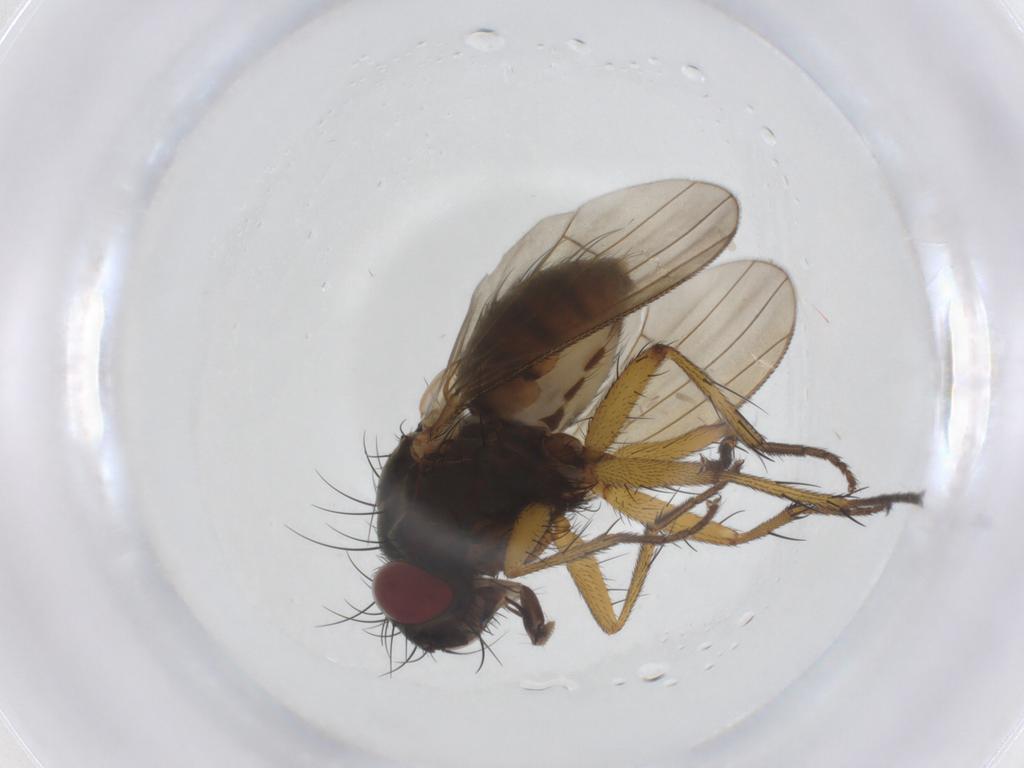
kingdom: Animalia
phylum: Arthropoda
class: Insecta
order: Diptera
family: Muscidae
